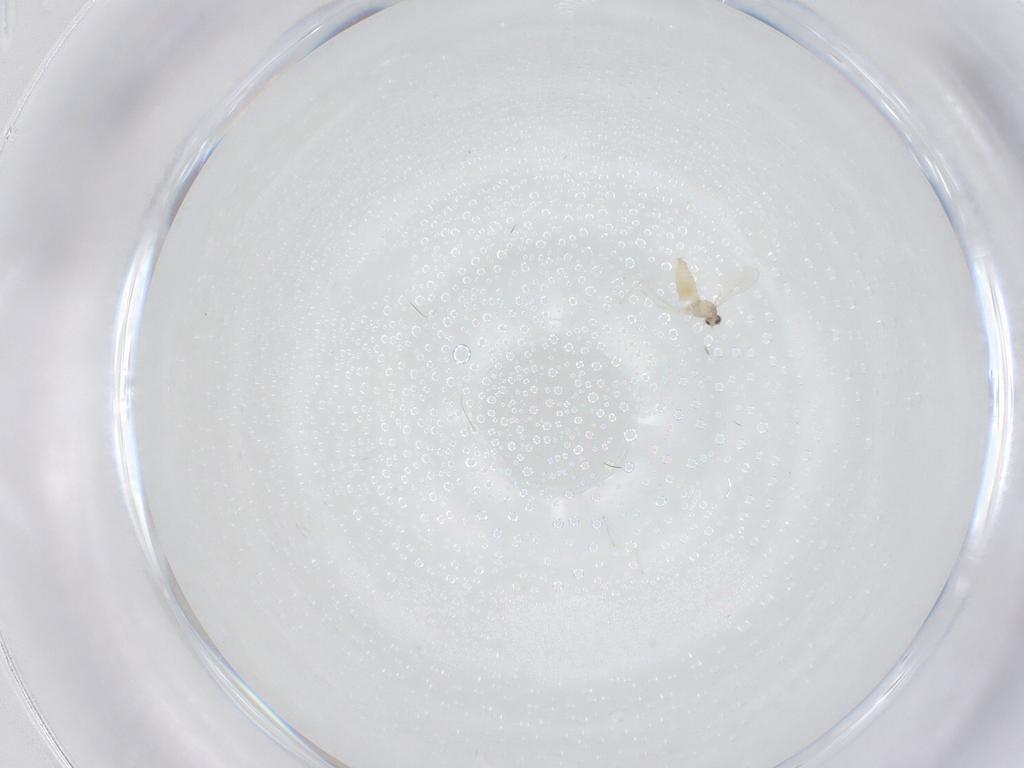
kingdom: Animalia
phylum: Arthropoda
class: Insecta
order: Diptera
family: Cecidomyiidae
